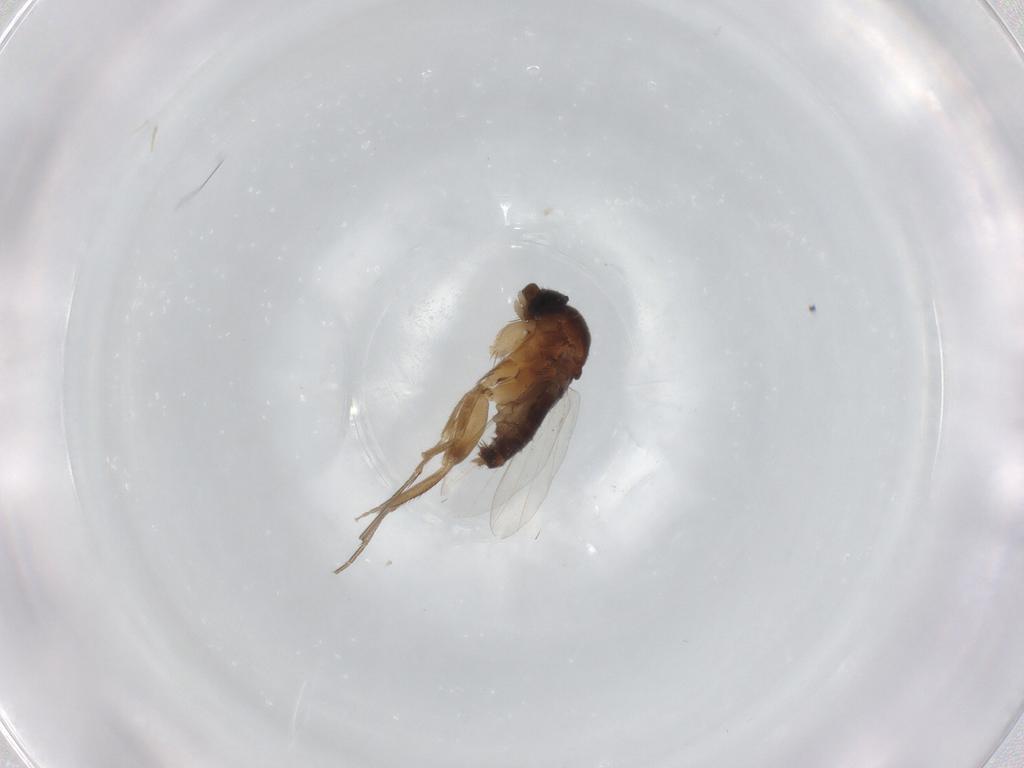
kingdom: Animalia
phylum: Arthropoda
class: Insecta
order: Diptera
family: Phoridae
